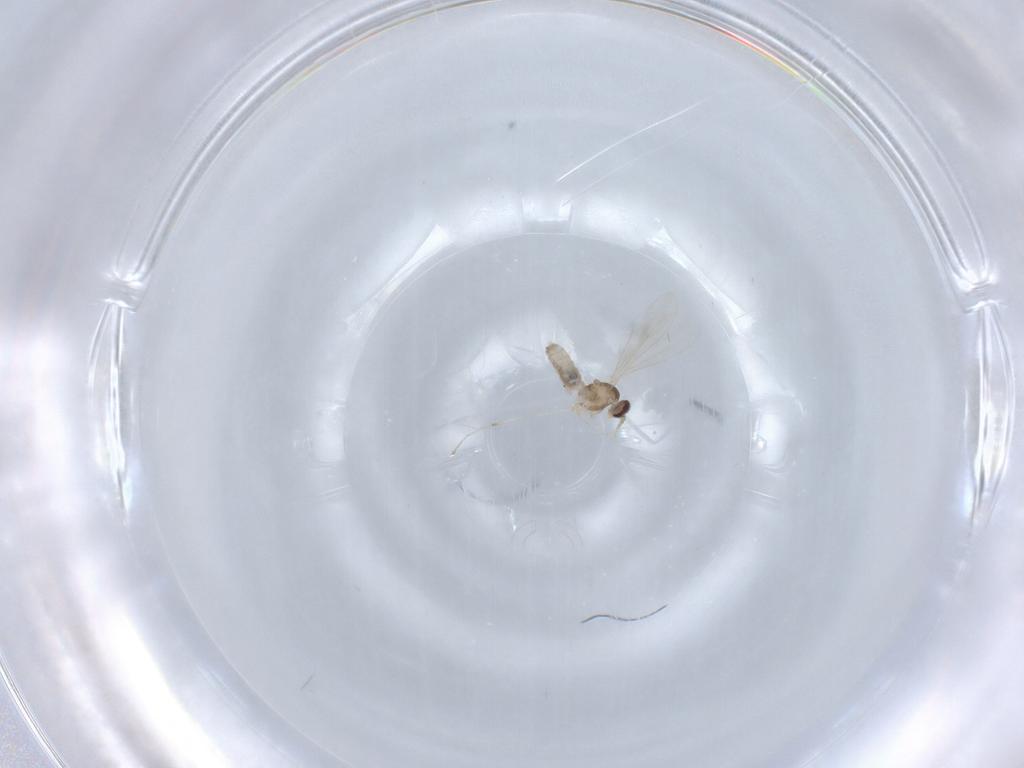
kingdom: Animalia
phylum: Arthropoda
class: Insecta
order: Diptera
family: Cecidomyiidae
